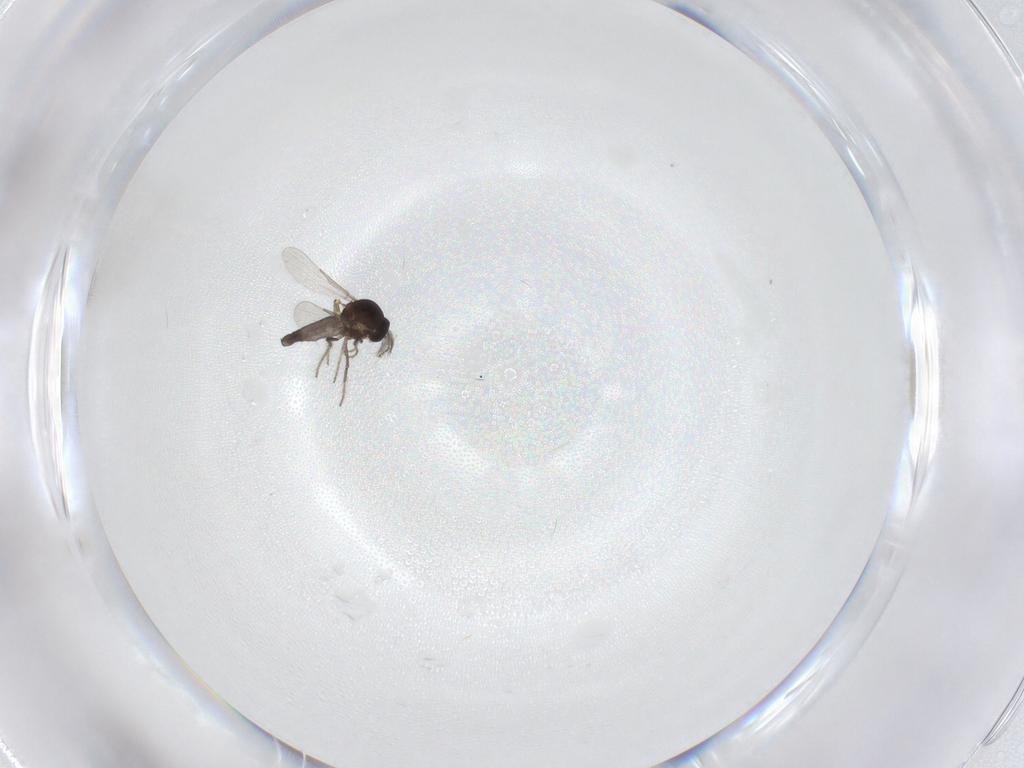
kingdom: Animalia
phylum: Arthropoda
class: Insecta
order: Diptera
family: Ceratopogonidae
